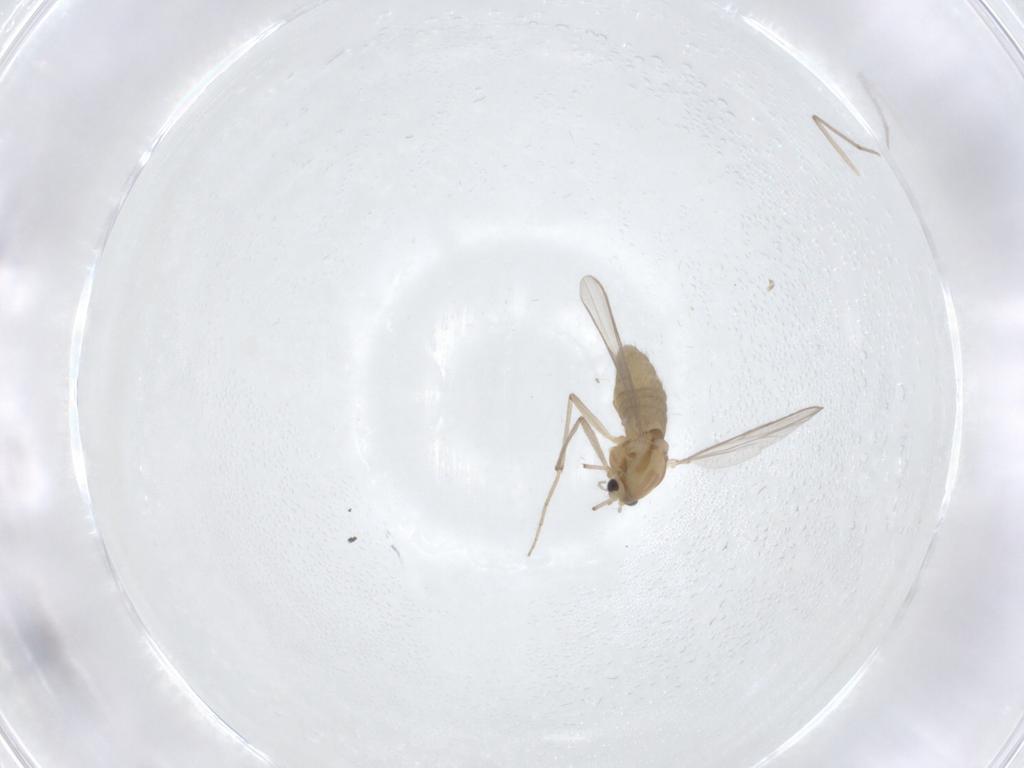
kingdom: Animalia
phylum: Arthropoda
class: Insecta
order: Diptera
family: Chironomidae
